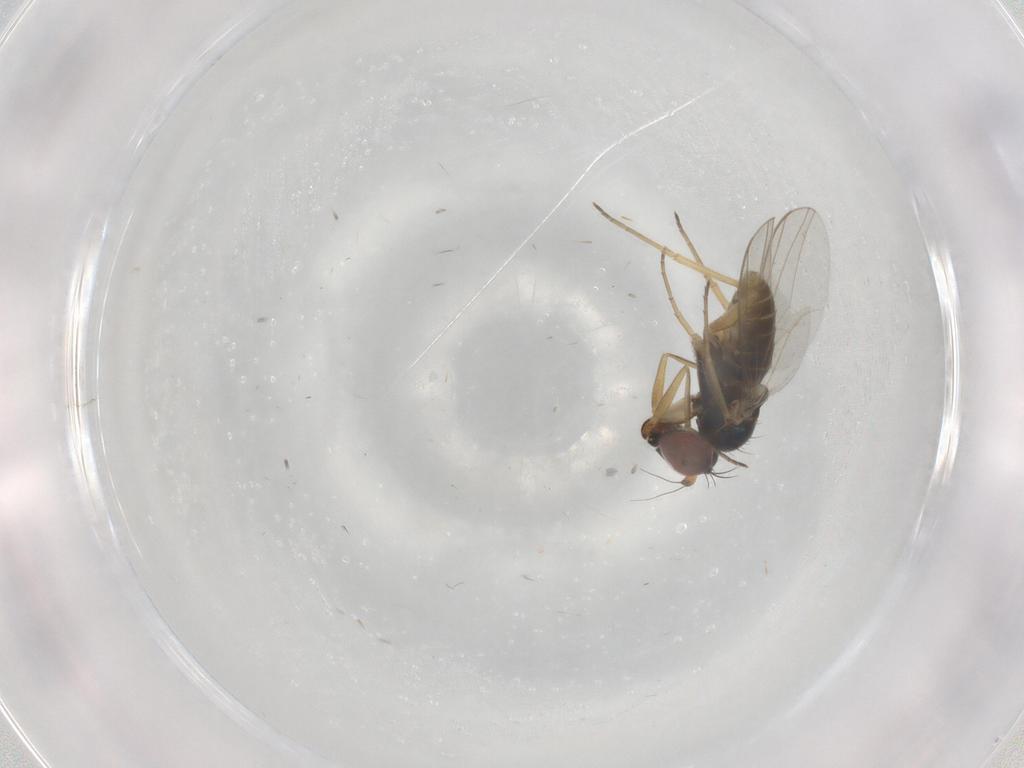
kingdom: Animalia
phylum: Arthropoda
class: Insecta
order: Diptera
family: Dolichopodidae
